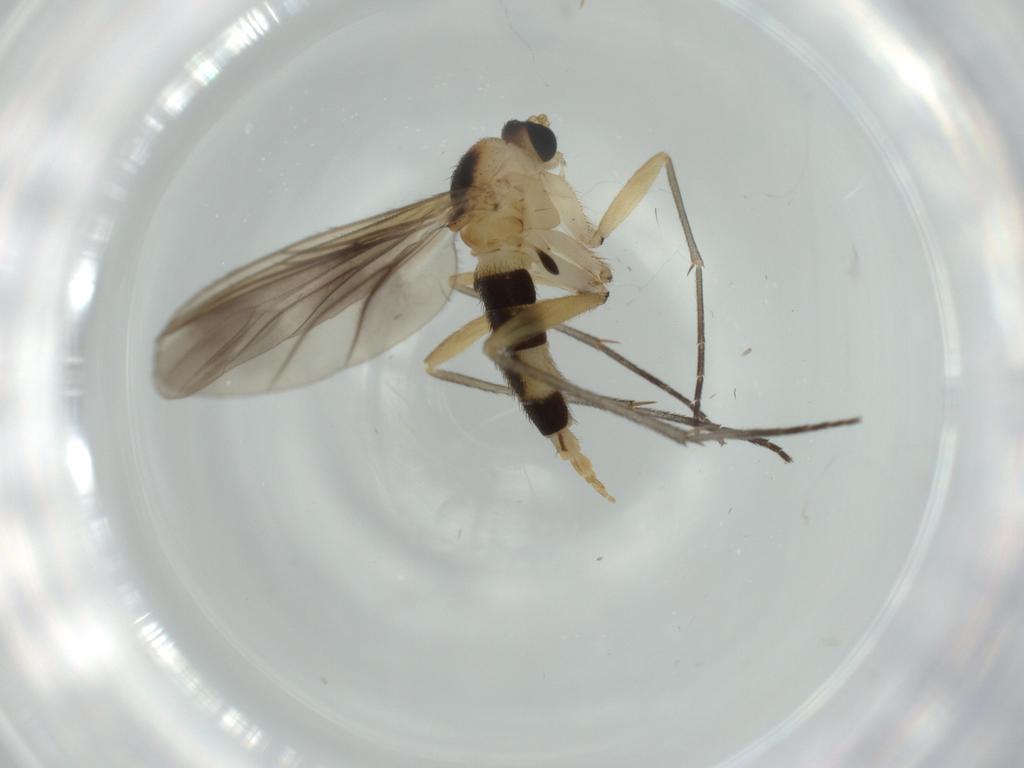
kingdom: Animalia
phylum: Arthropoda
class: Insecta
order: Diptera
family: Sciaridae
